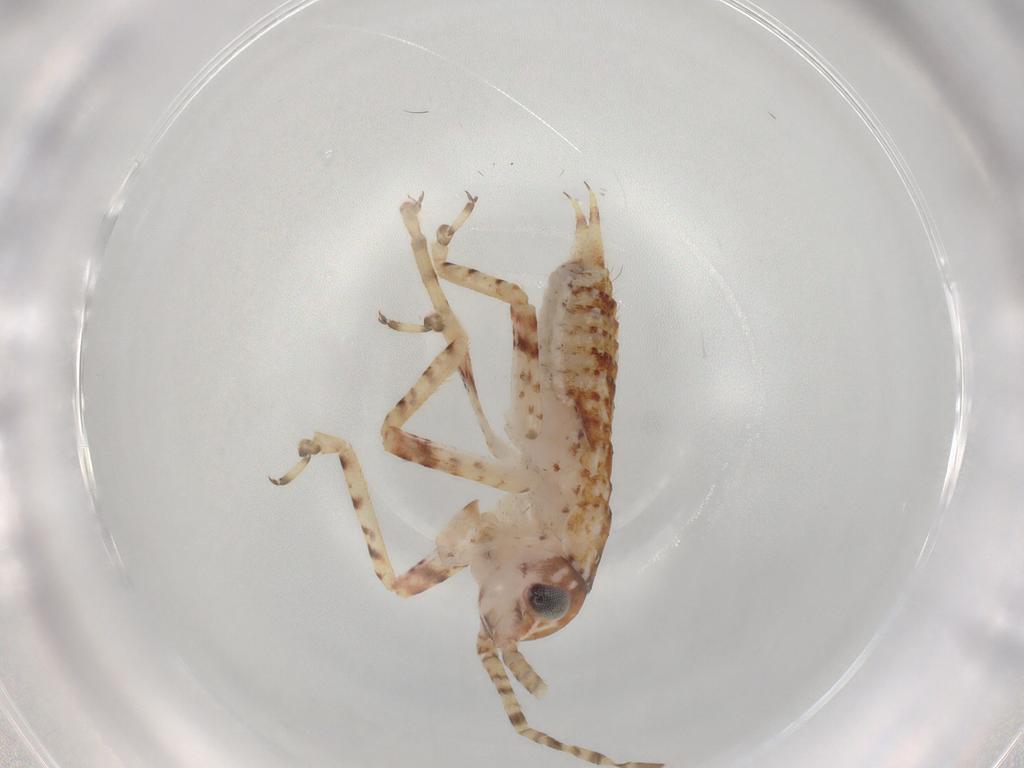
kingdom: Animalia
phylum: Arthropoda
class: Insecta
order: Orthoptera
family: Gryllidae
